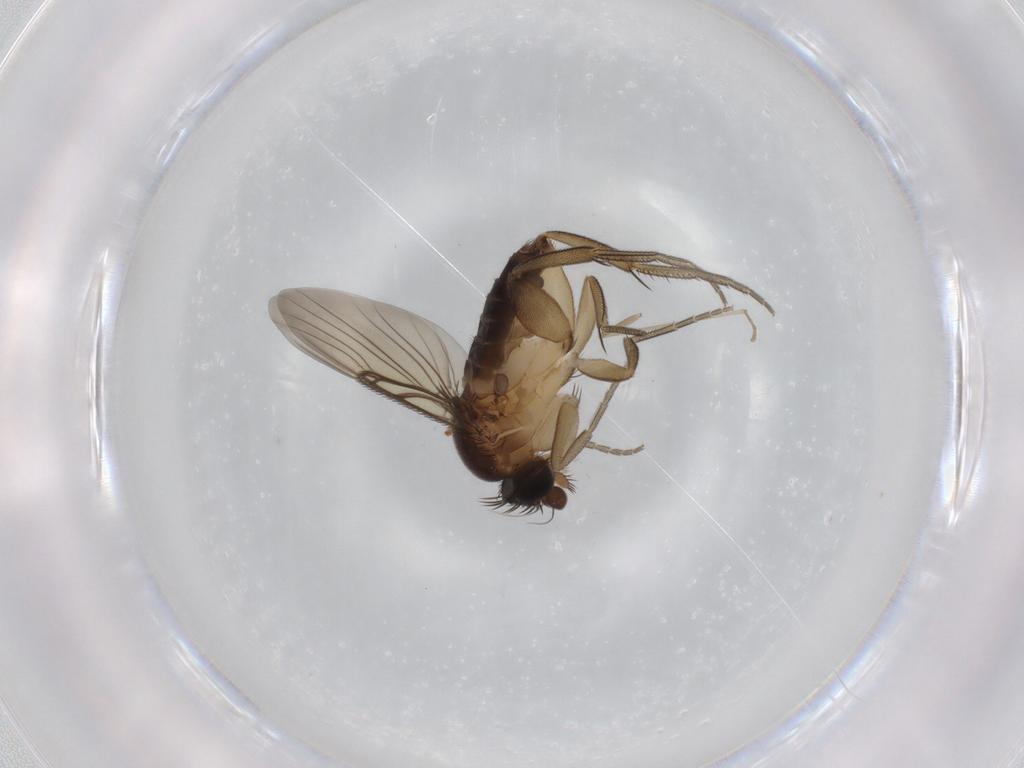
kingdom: Animalia
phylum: Arthropoda
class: Insecta
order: Diptera
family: Psychodidae
